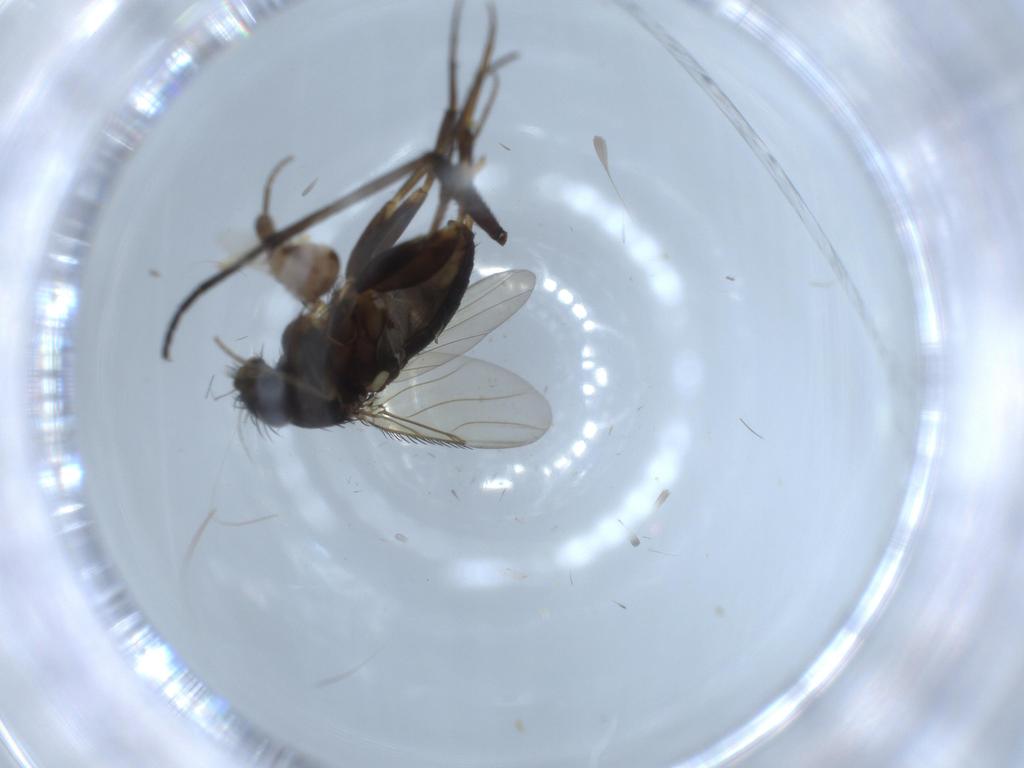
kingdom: Animalia
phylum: Arthropoda
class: Insecta
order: Diptera
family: Ceratopogonidae
